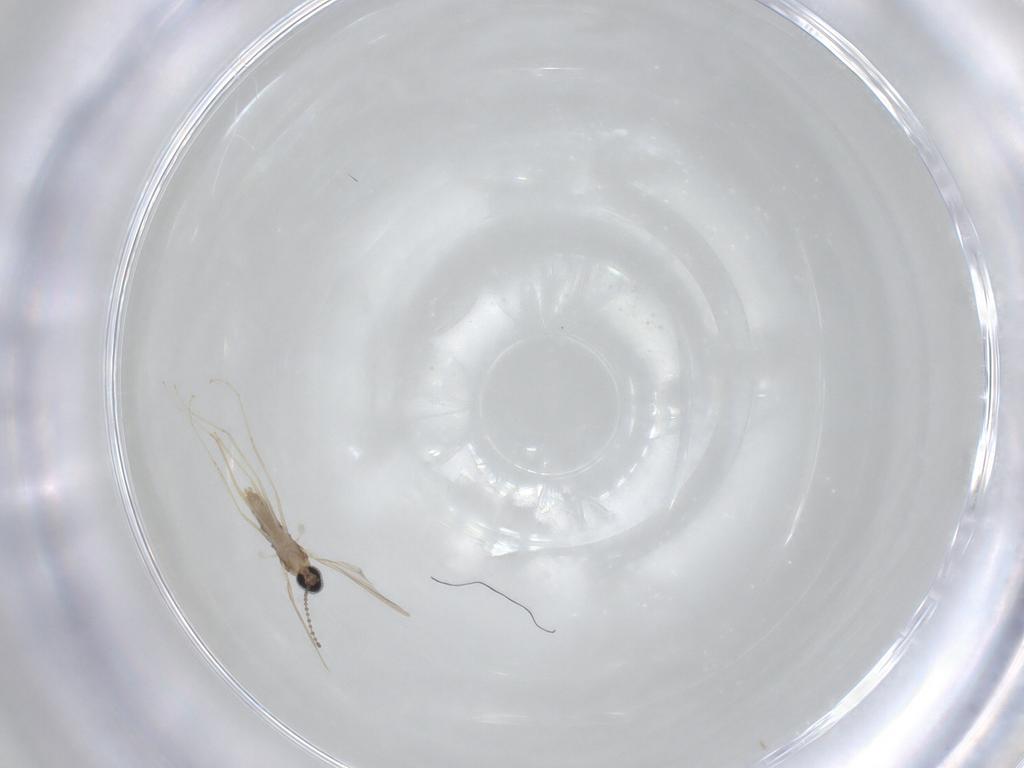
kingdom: Animalia
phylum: Arthropoda
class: Insecta
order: Diptera
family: Cecidomyiidae
